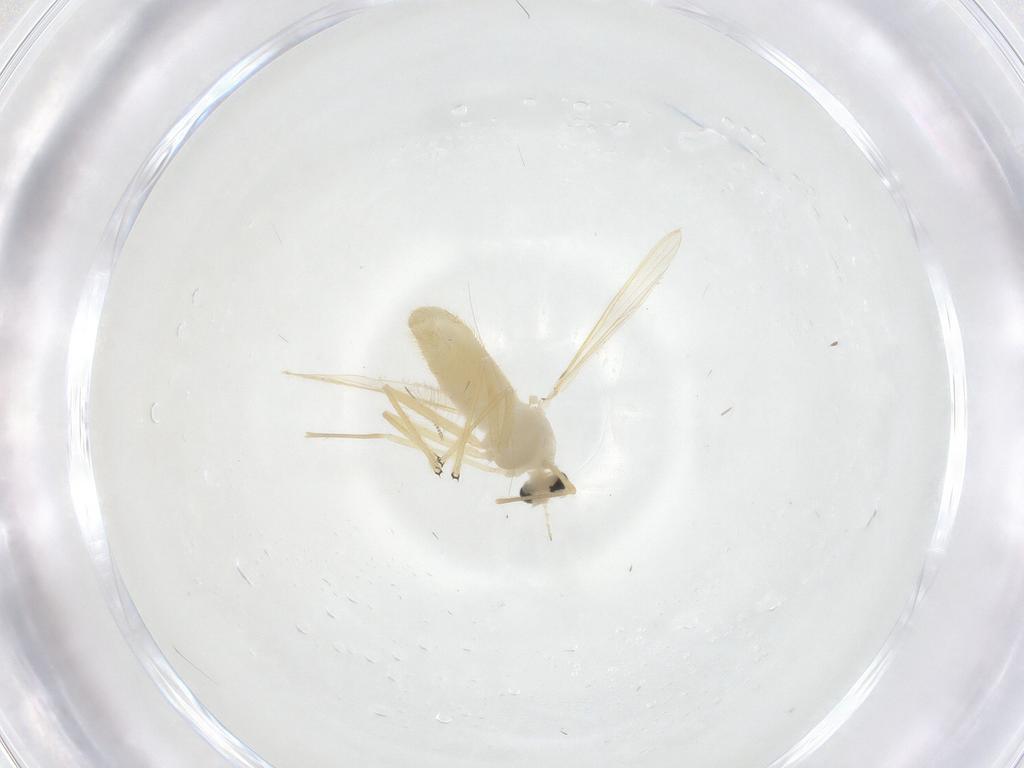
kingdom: Animalia
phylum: Arthropoda
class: Insecta
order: Diptera
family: Chironomidae
